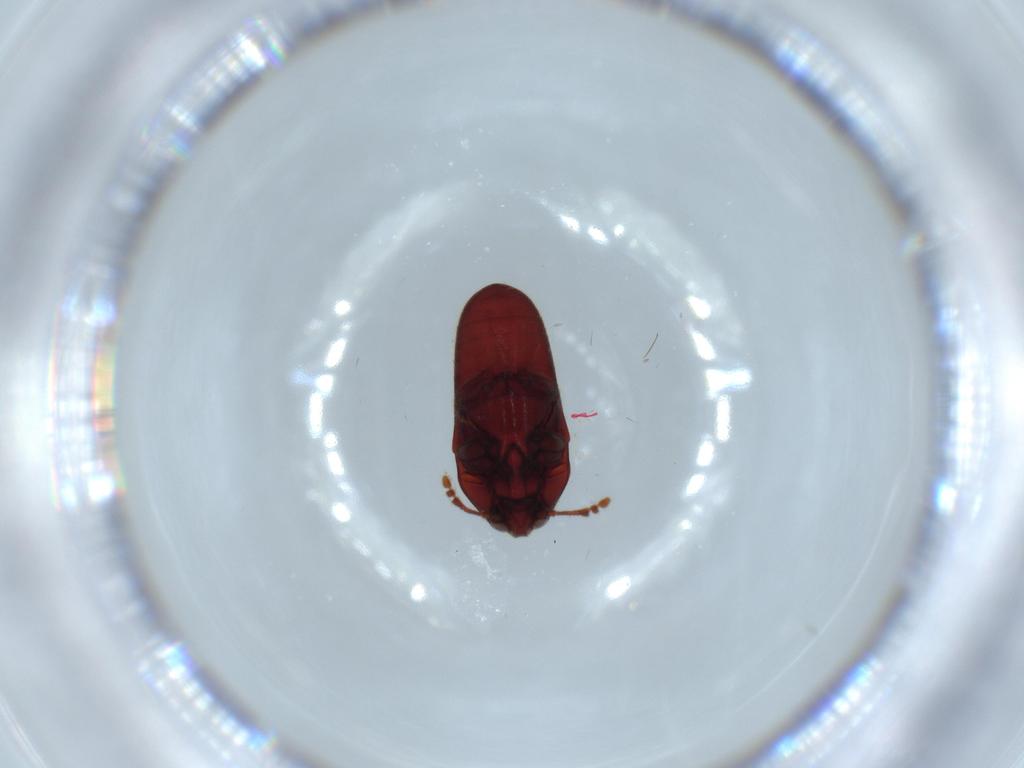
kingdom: Animalia
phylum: Arthropoda
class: Insecta
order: Coleoptera
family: Throscidae
